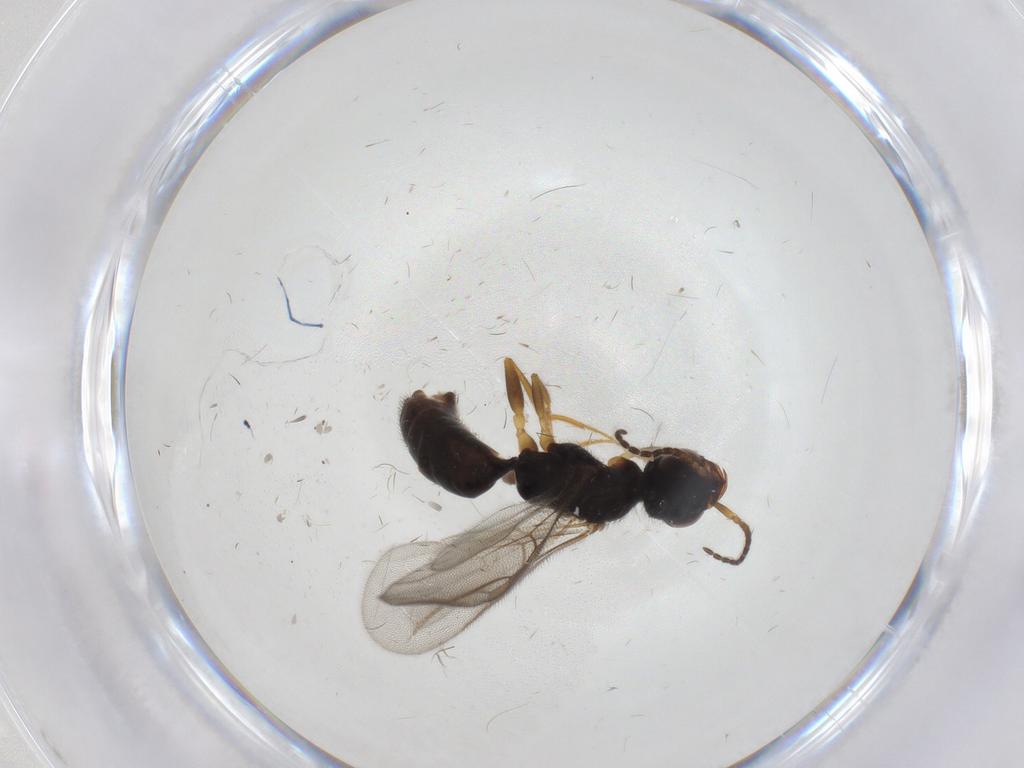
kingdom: Animalia
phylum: Arthropoda
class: Insecta
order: Hymenoptera
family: Bethylidae
